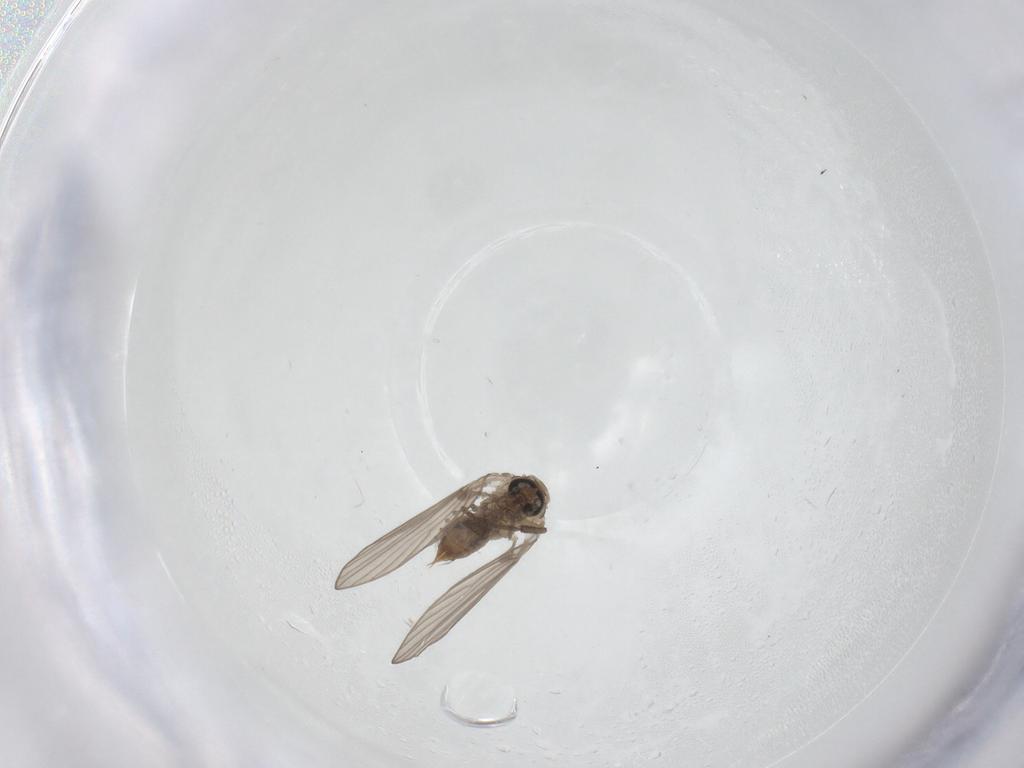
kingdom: Animalia
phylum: Arthropoda
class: Insecta
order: Diptera
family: Psychodidae
